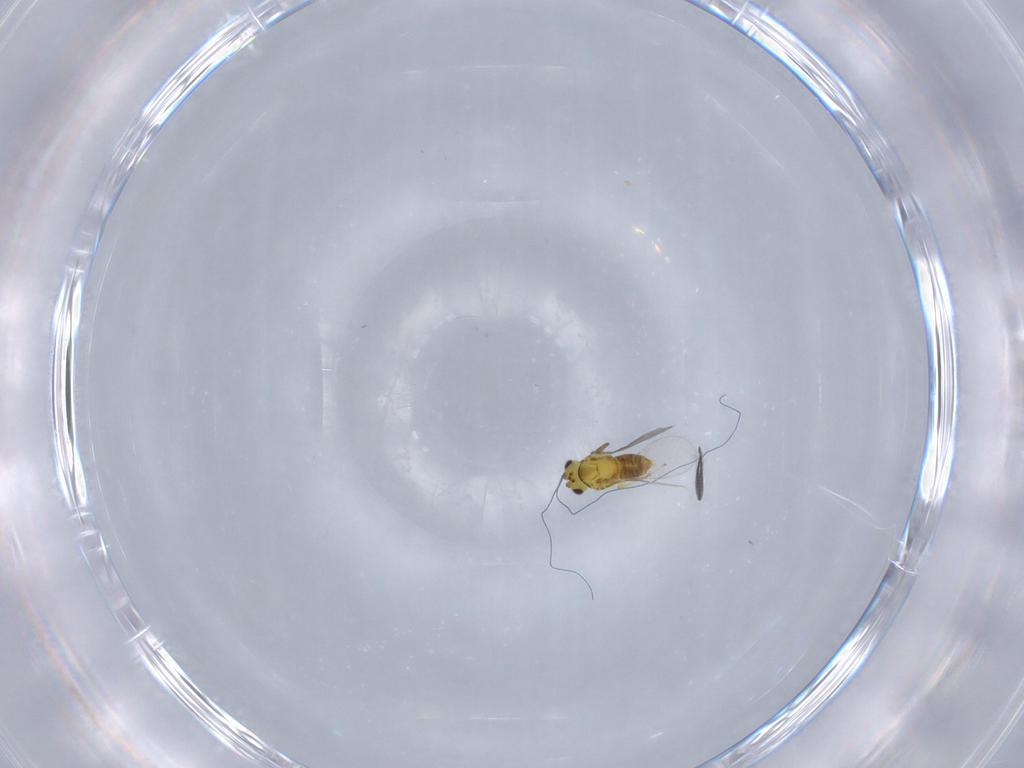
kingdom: Animalia
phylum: Arthropoda
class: Insecta
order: Hymenoptera
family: Aphelinidae
